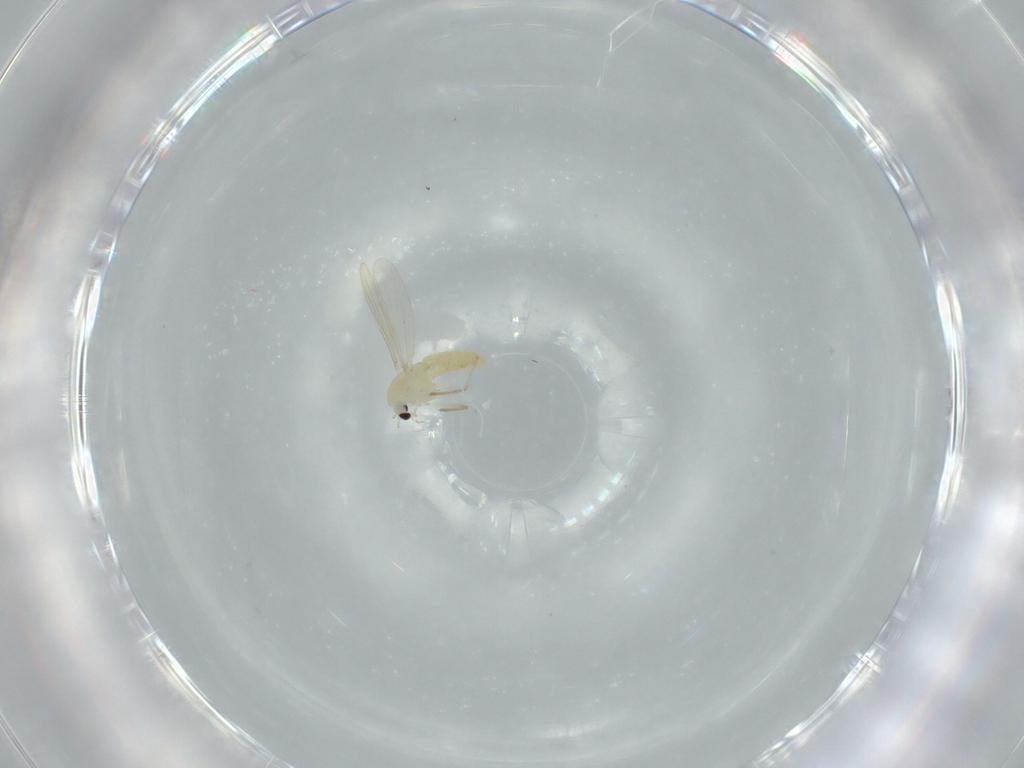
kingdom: Animalia
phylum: Arthropoda
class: Insecta
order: Diptera
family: Chironomidae
